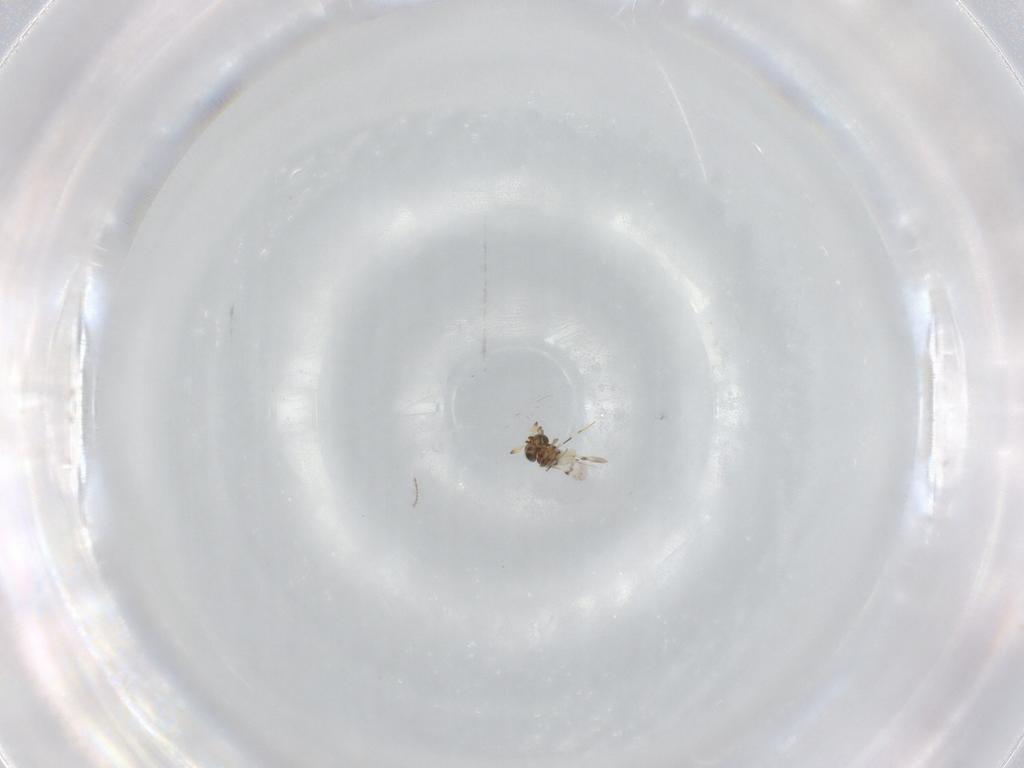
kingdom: Animalia
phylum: Arthropoda
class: Insecta
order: Hymenoptera
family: Scelionidae
